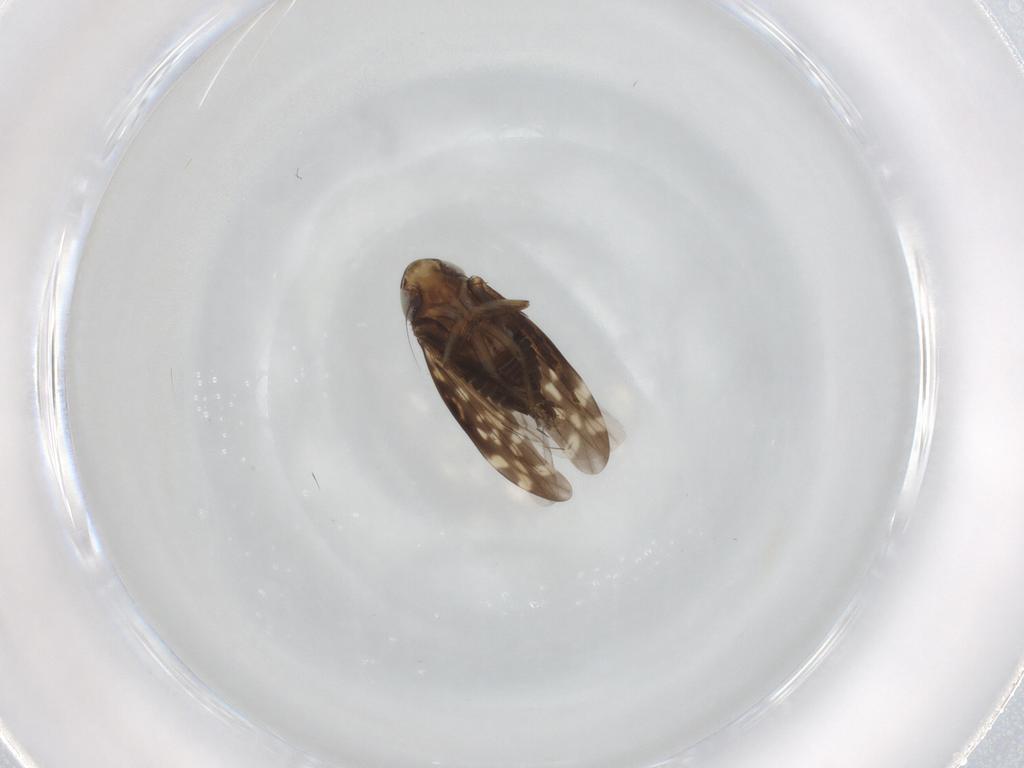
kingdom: Animalia
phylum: Arthropoda
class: Insecta
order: Hemiptera
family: Cicadellidae
